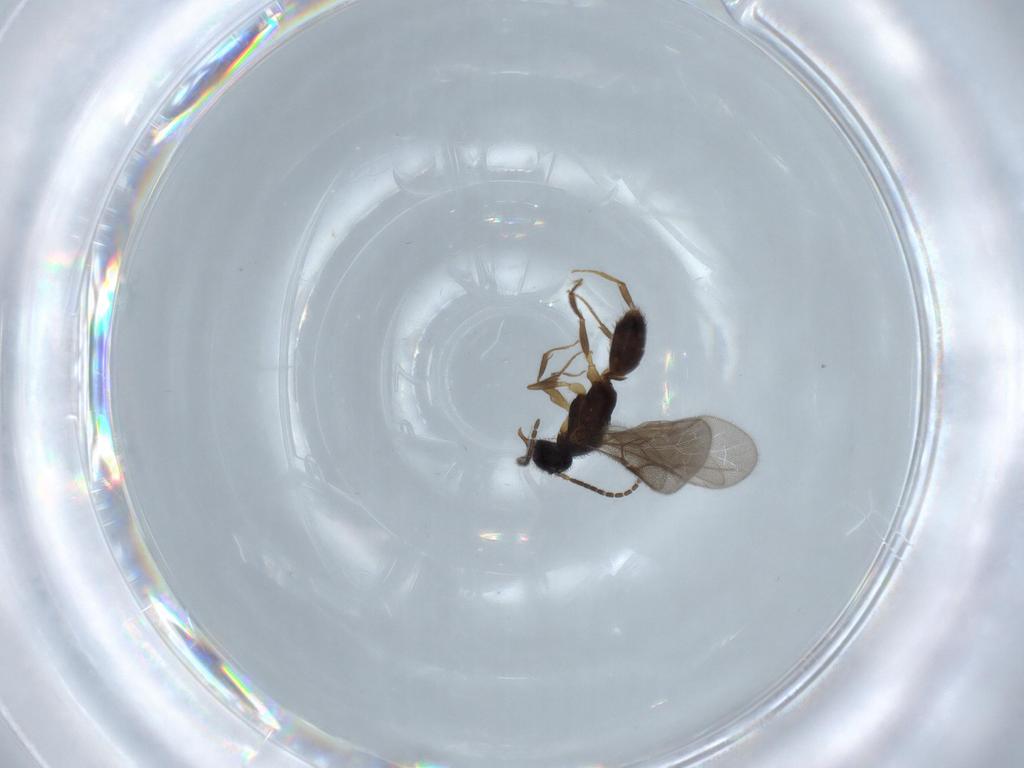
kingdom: Animalia
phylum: Arthropoda
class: Insecta
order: Hymenoptera
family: Bethylidae
